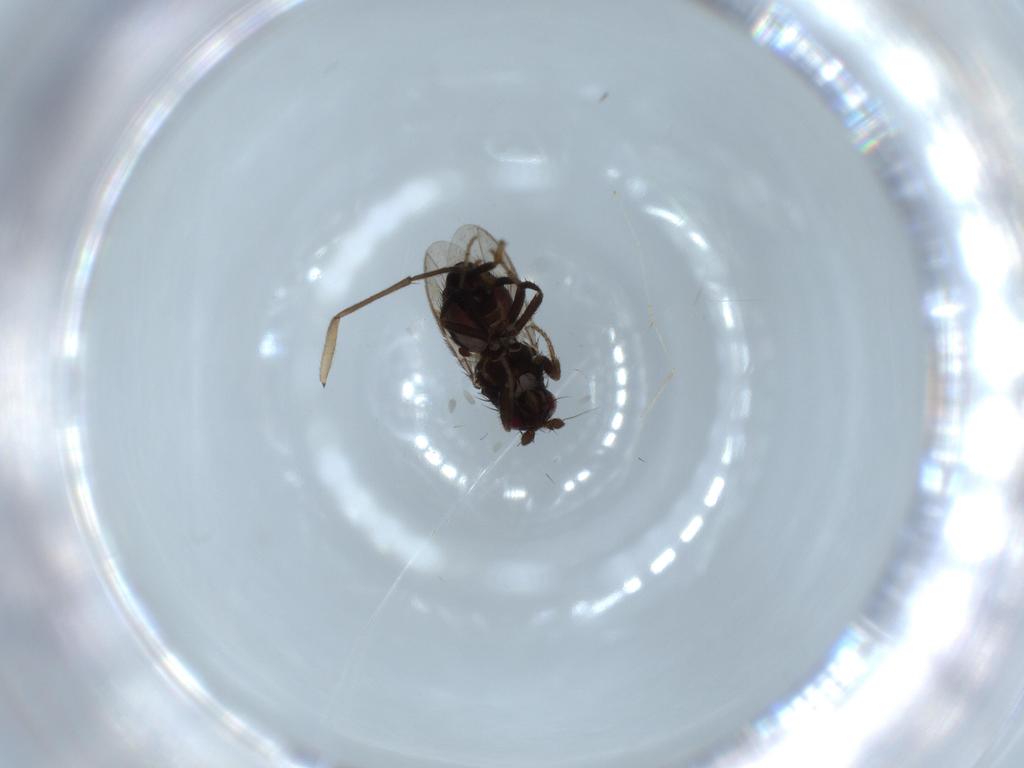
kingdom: Animalia
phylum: Arthropoda
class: Insecta
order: Diptera
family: Sphaeroceridae
